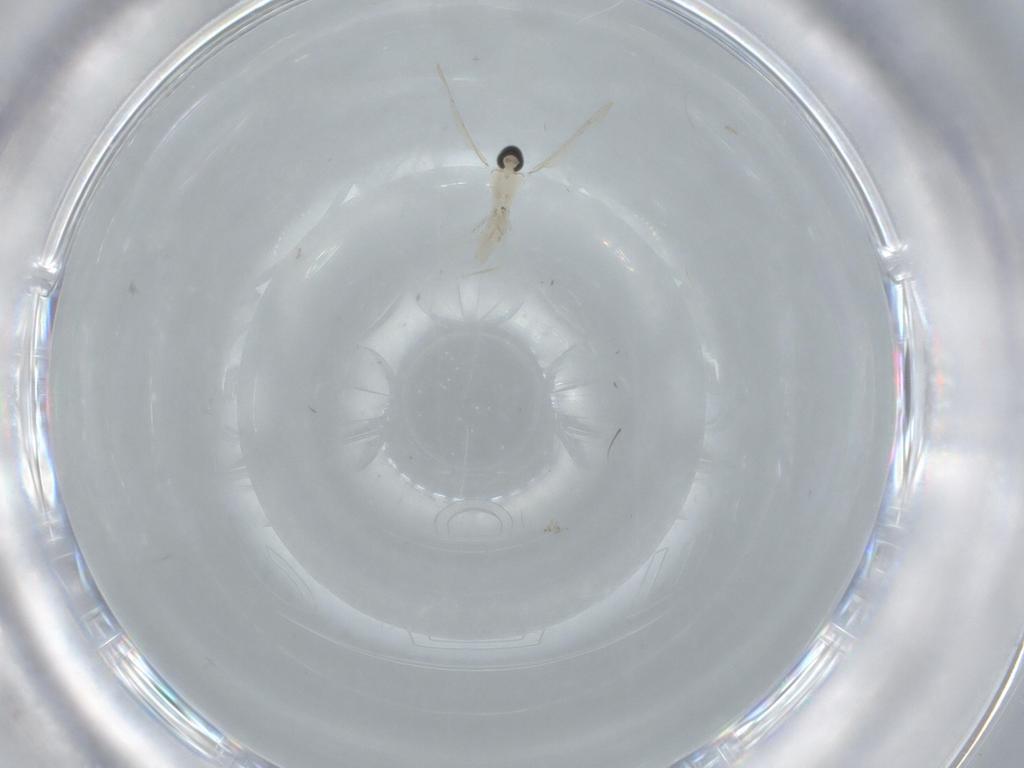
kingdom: Animalia
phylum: Arthropoda
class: Insecta
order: Diptera
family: Cecidomyiidae
